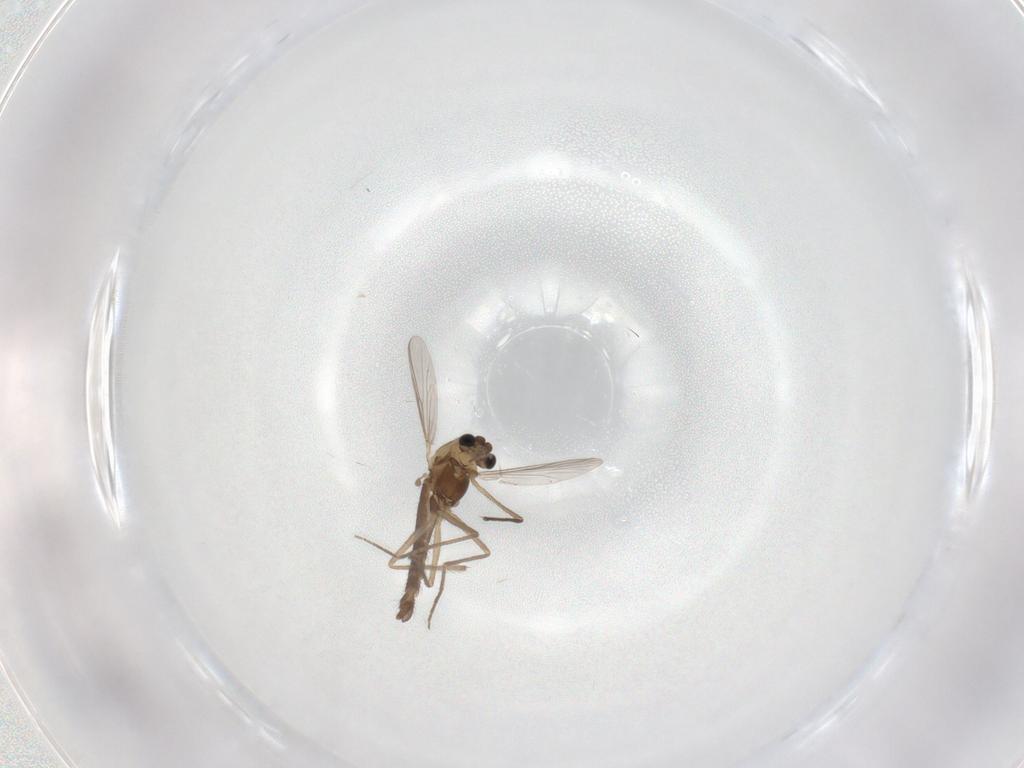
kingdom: Animalia
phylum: Arthropoda
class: Insecta
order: Diptera
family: Chironomidae
